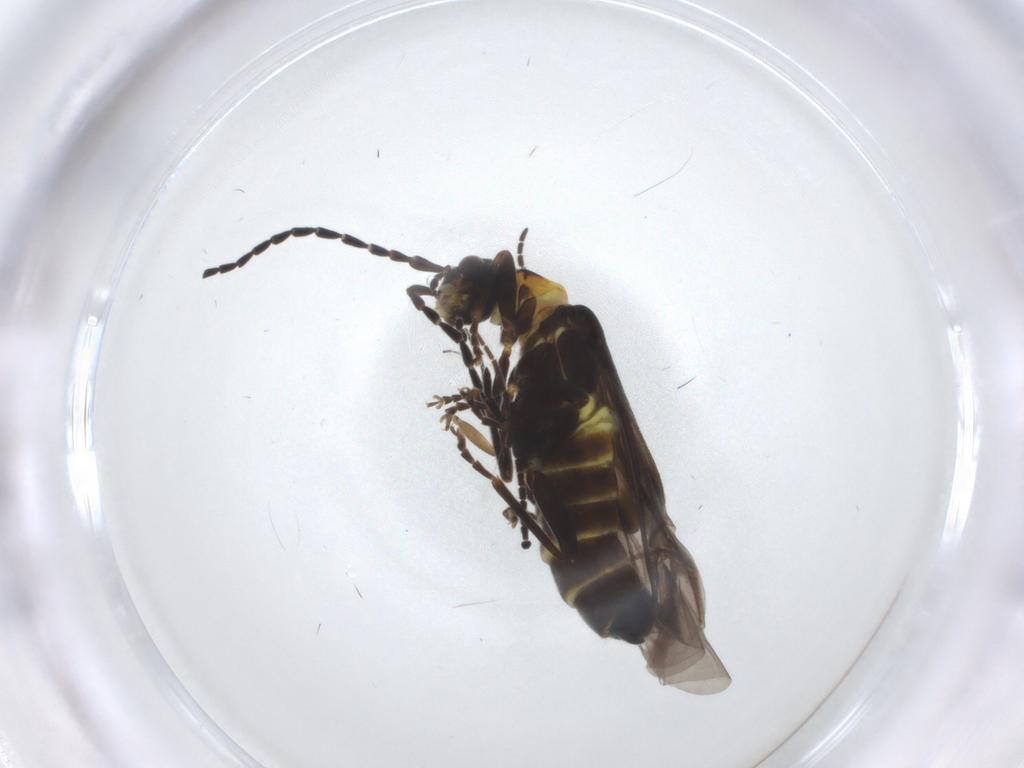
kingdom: Animalia
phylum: Arthropoda
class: Insecta
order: Coleoptera
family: Cantharidae
